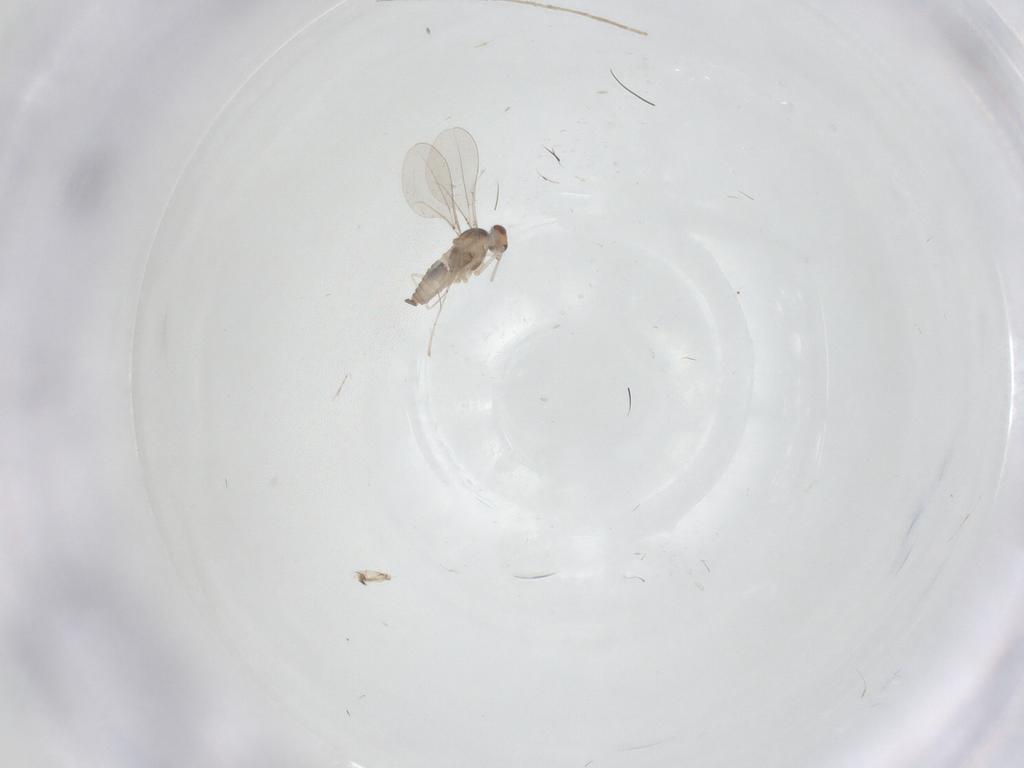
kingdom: Animalia
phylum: Arthropoda
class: Insecta
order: Diptera
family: Cecidomyiidae
